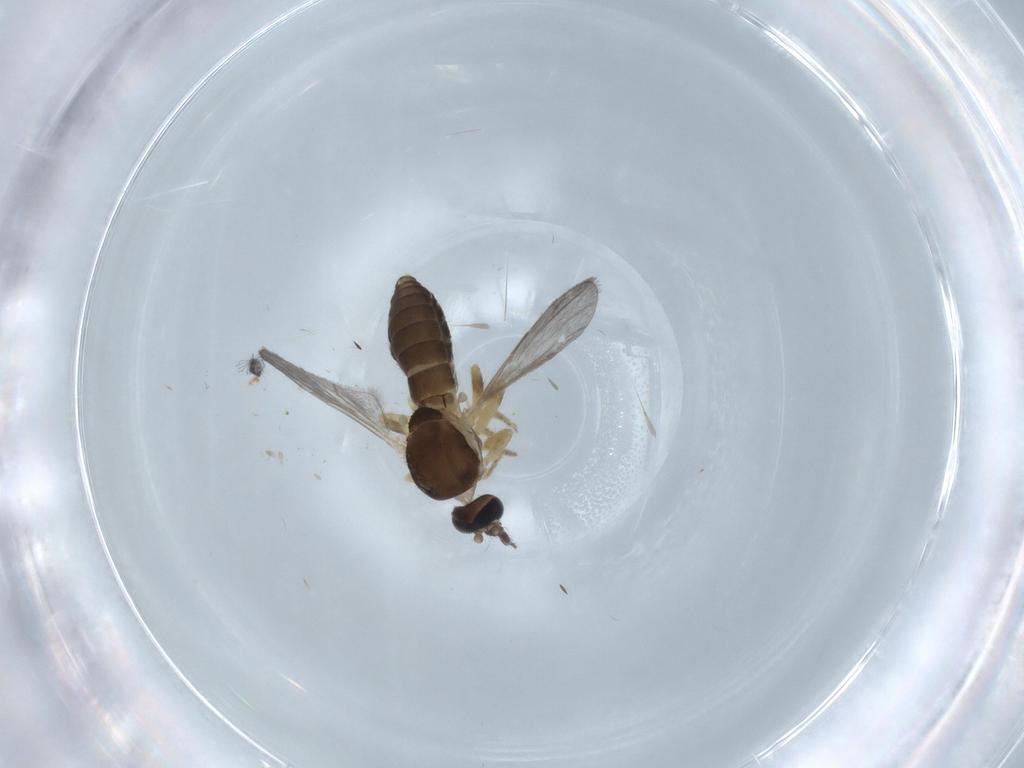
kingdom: Animalia
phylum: Arthropoda
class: Insecta
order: Diptera
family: Ceratopogonidae
